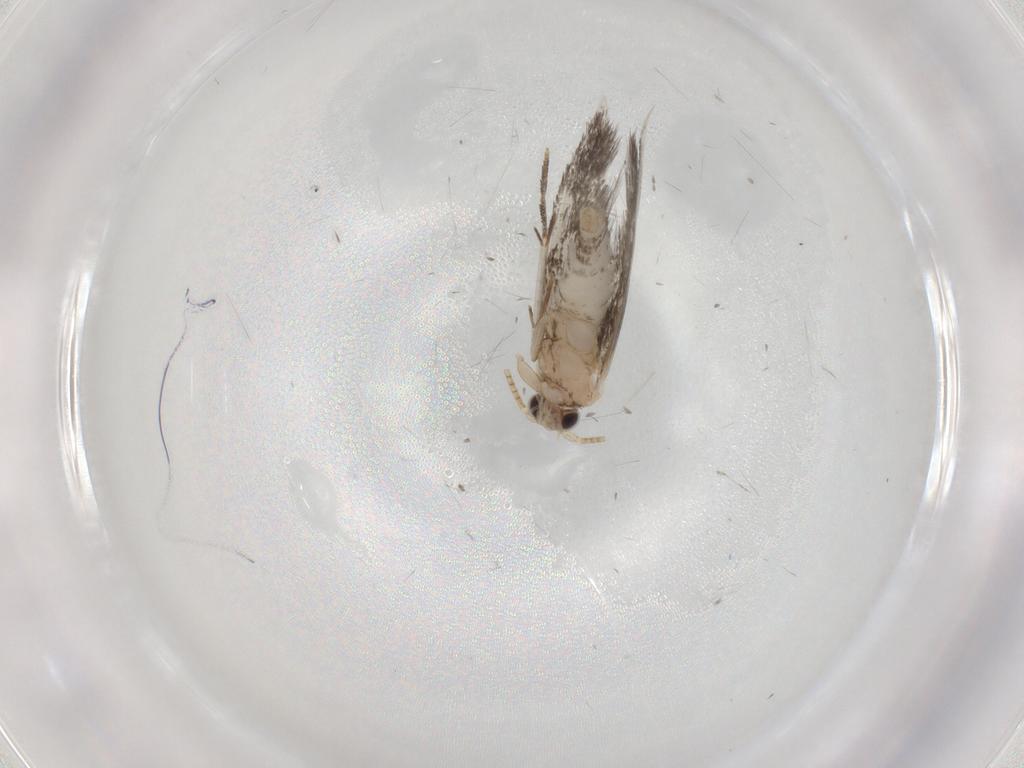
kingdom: Animalia
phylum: Arthropoda
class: Insecta
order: Lepidoptera
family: Tineidae
